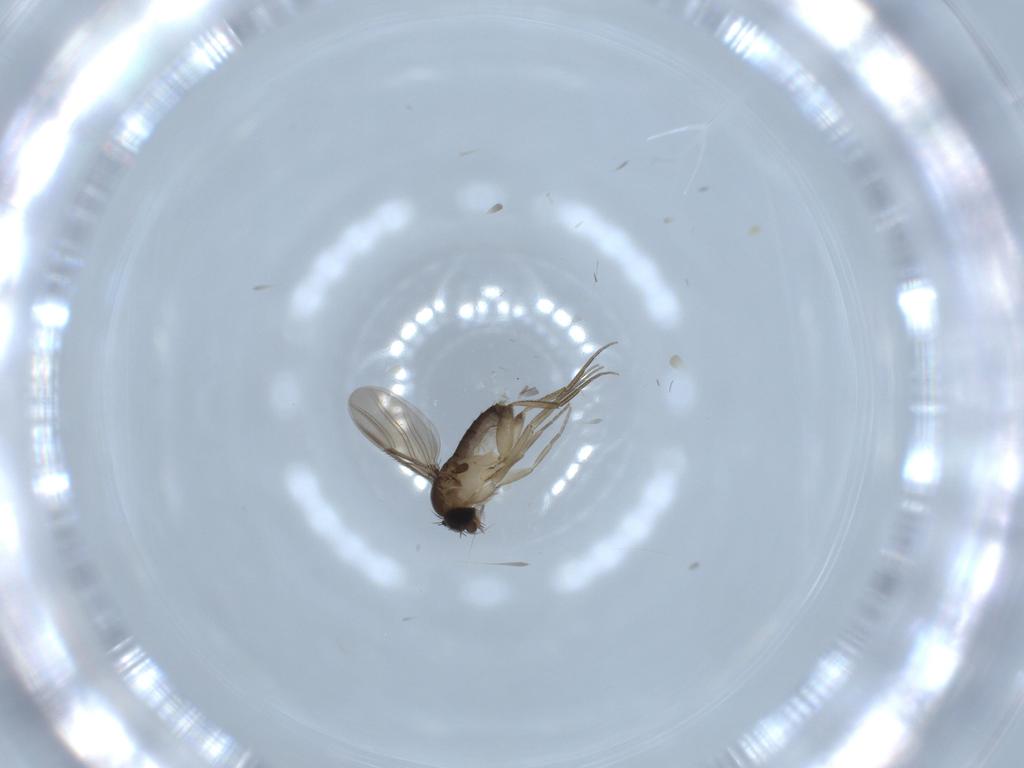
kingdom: Animalia
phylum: Arthropoda
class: Insecta
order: Diptera
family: Phoridae
